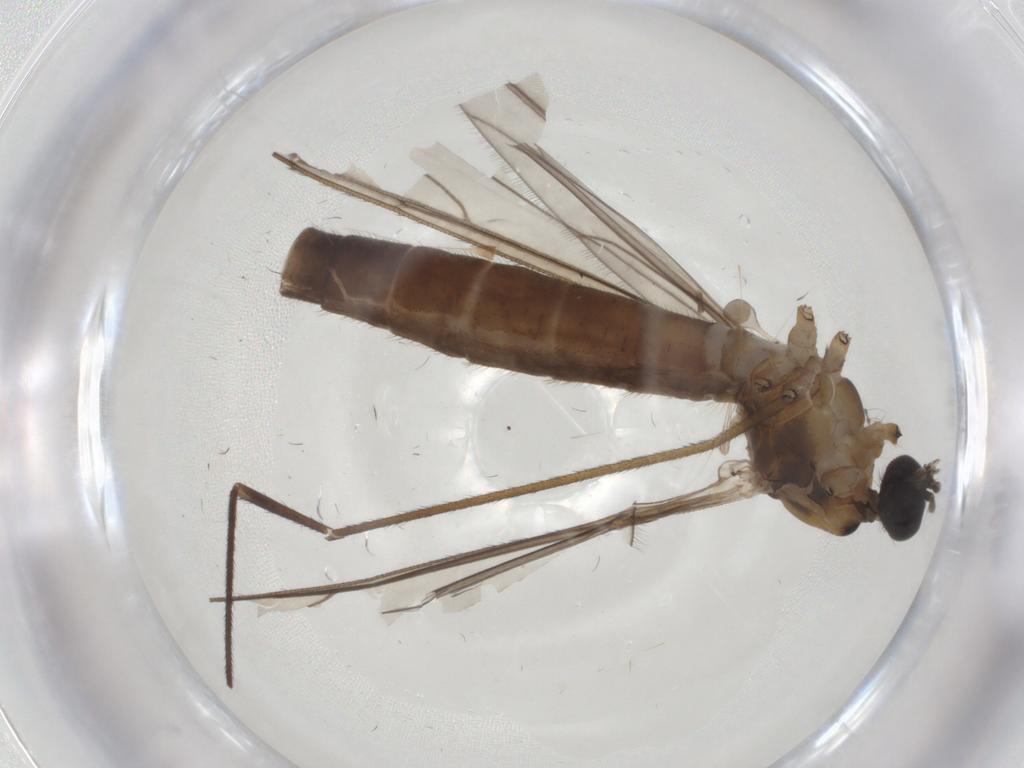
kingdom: Animalia
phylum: Arthropoda
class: Insecta
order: Diptera
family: Limoniidae
